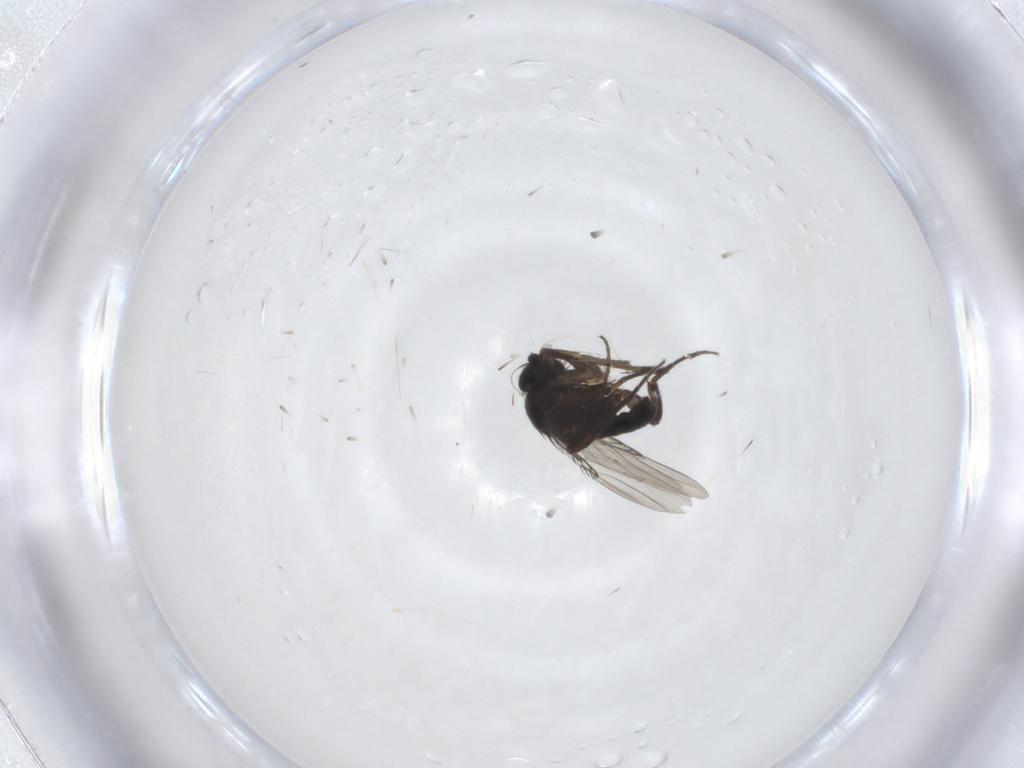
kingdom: Animalia
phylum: Arthropoda
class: Insecta
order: Diptera
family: Phoridae
